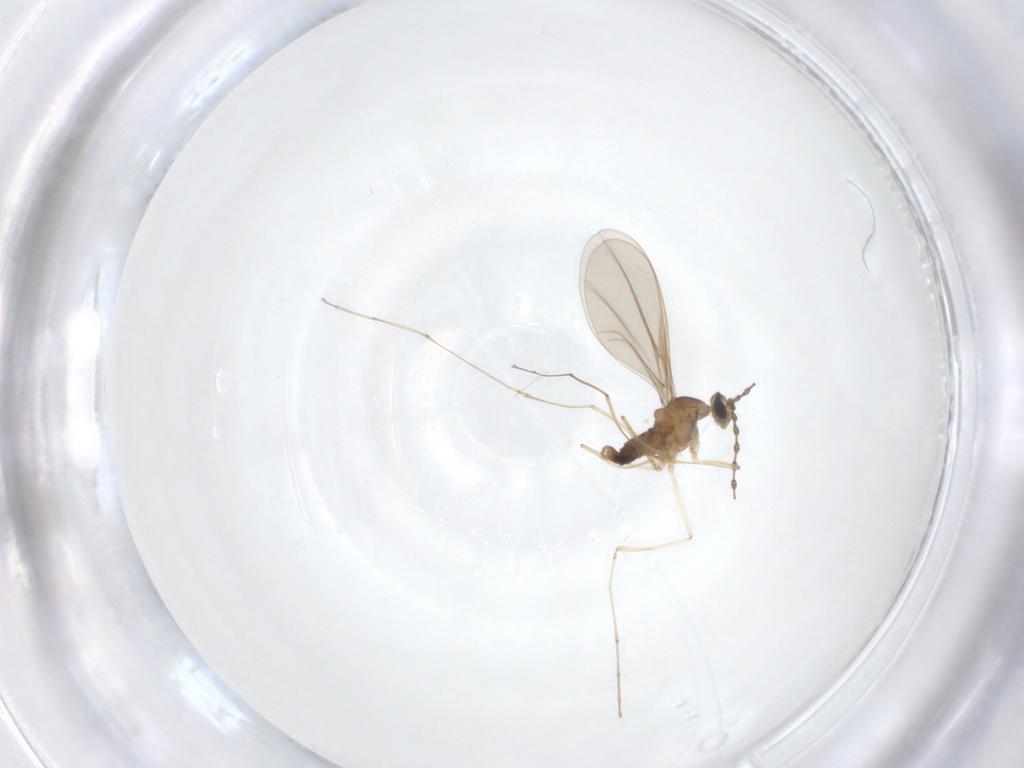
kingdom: Animalia
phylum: Arthropoda
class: Insecta
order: Diptera
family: Cecidomyiidae
